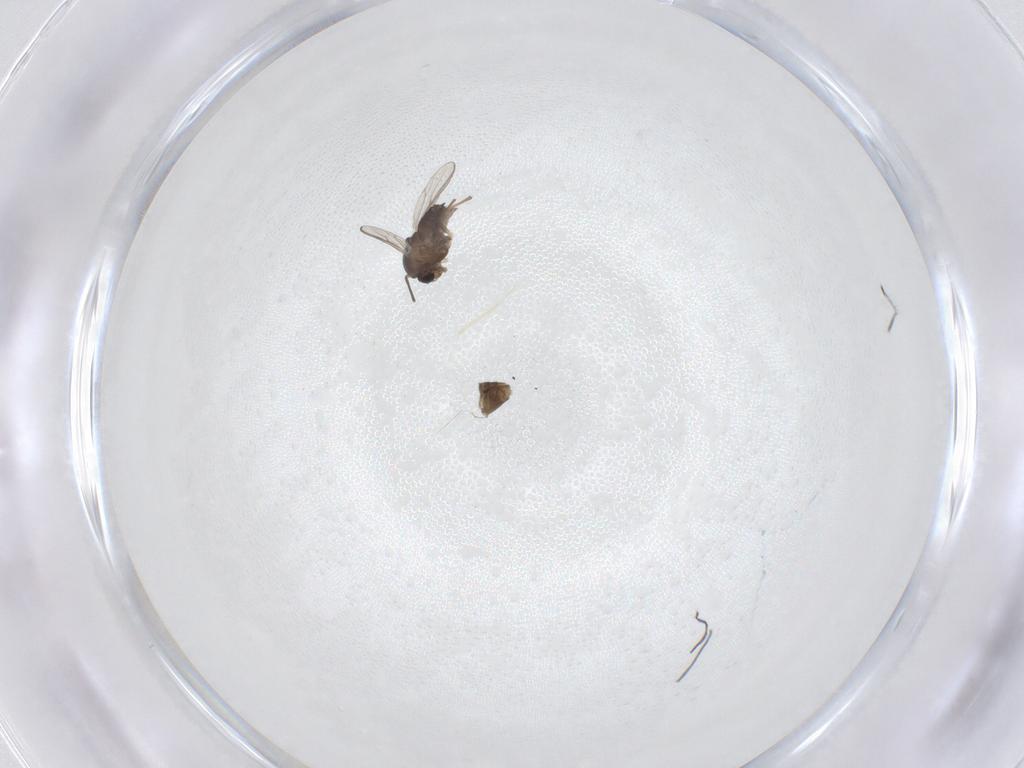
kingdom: Animalia
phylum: Arthropoda
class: Insecta
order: Diptera
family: Chironomidae
